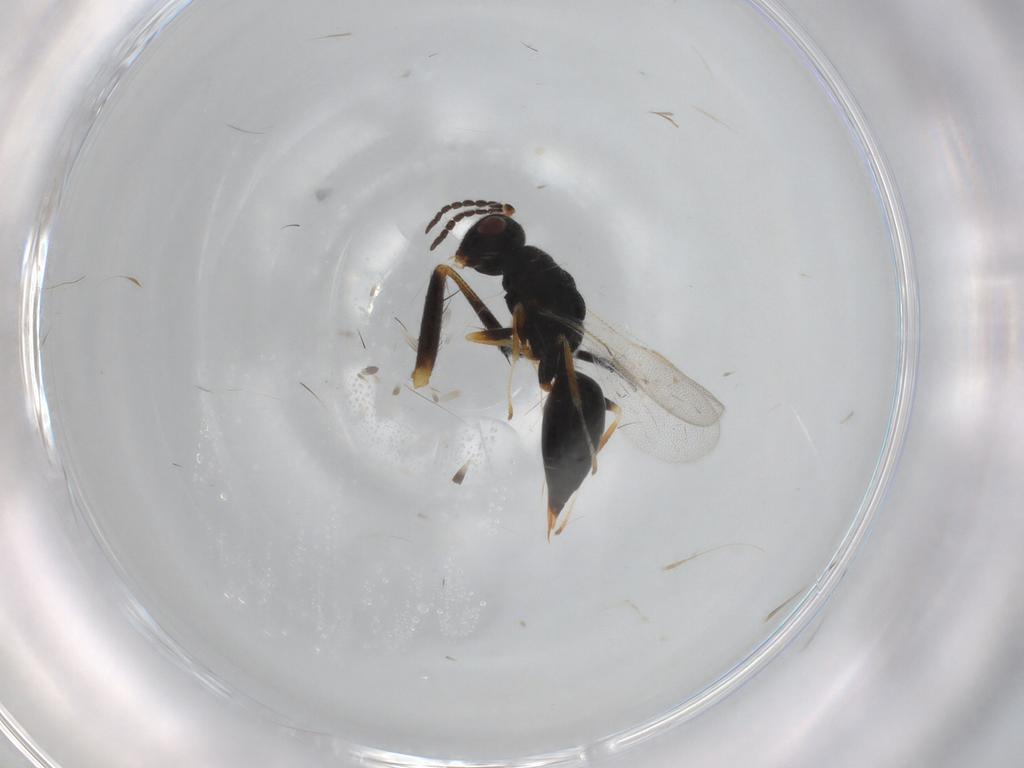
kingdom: Animalia
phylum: Arthropoda
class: Insecta
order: Hymenoptera
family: Eurytomidae
